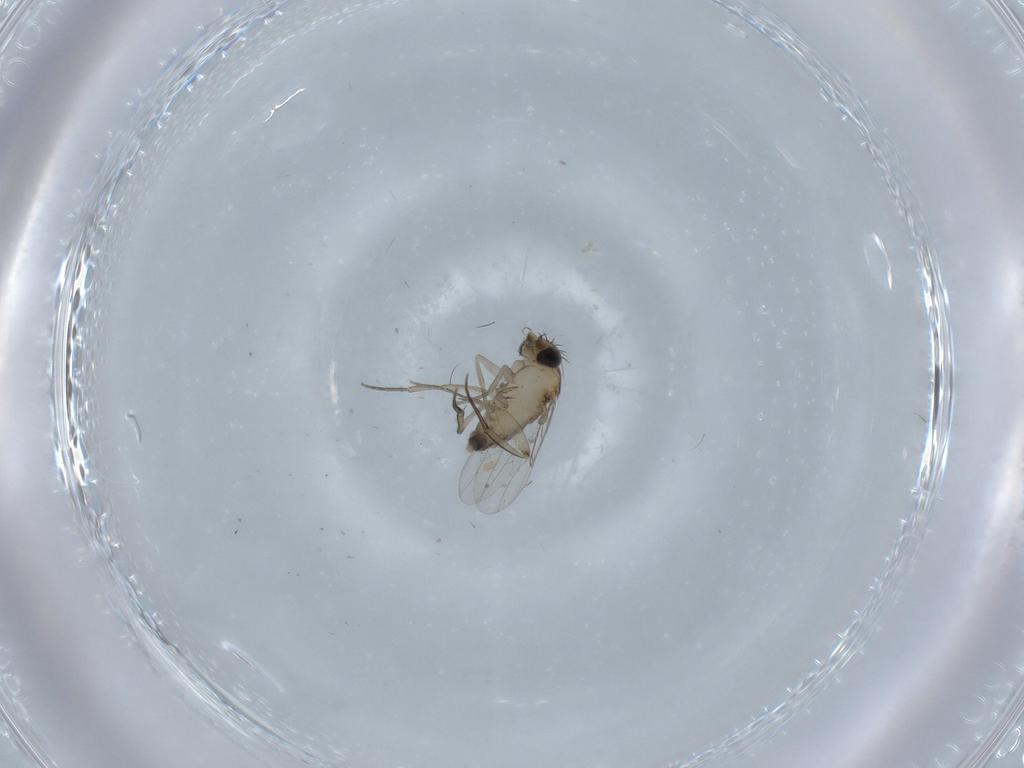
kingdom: Animalia
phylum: Arthropoda
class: Insecta
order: Diptera
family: Phoridae
